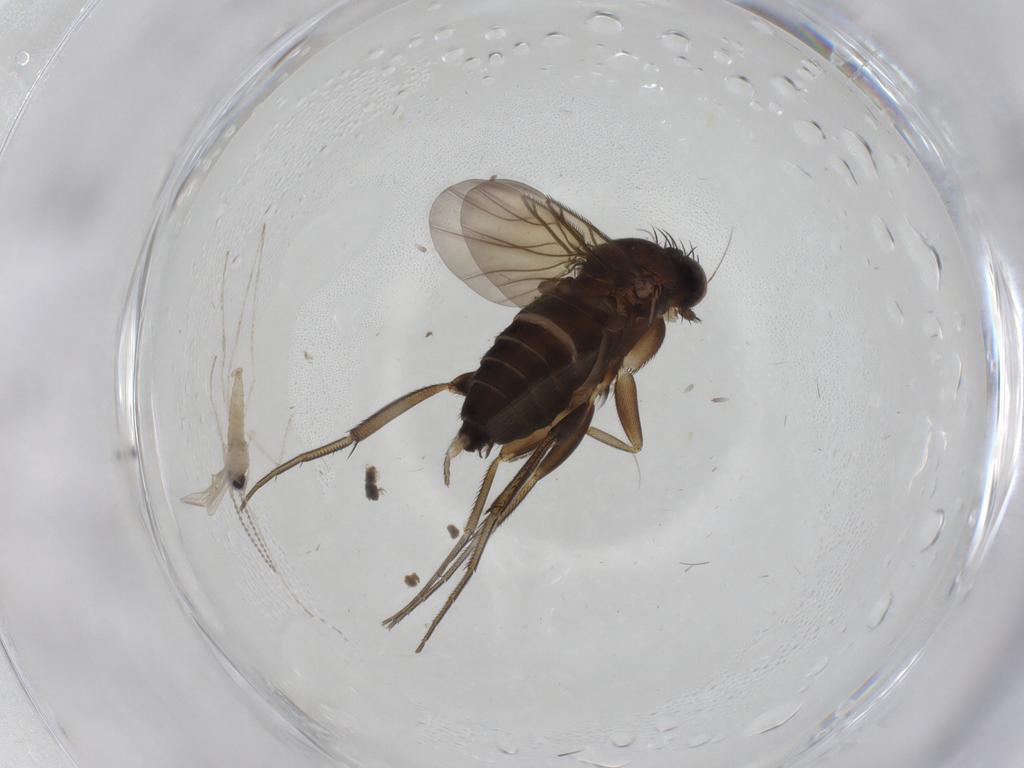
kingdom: Animalia
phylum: Arthropoda
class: Insecta
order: Diptera
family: Phoridae
